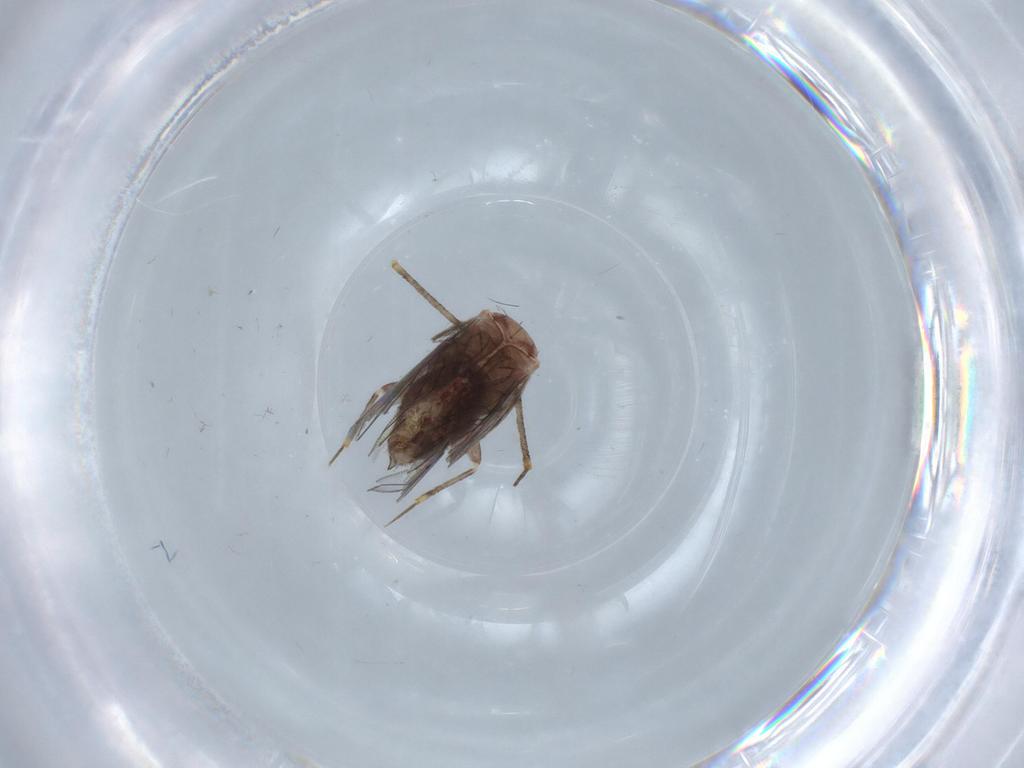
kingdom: Animalia
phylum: Arthropoda
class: Insecta
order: Psocodea
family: Lepidopsocidae
